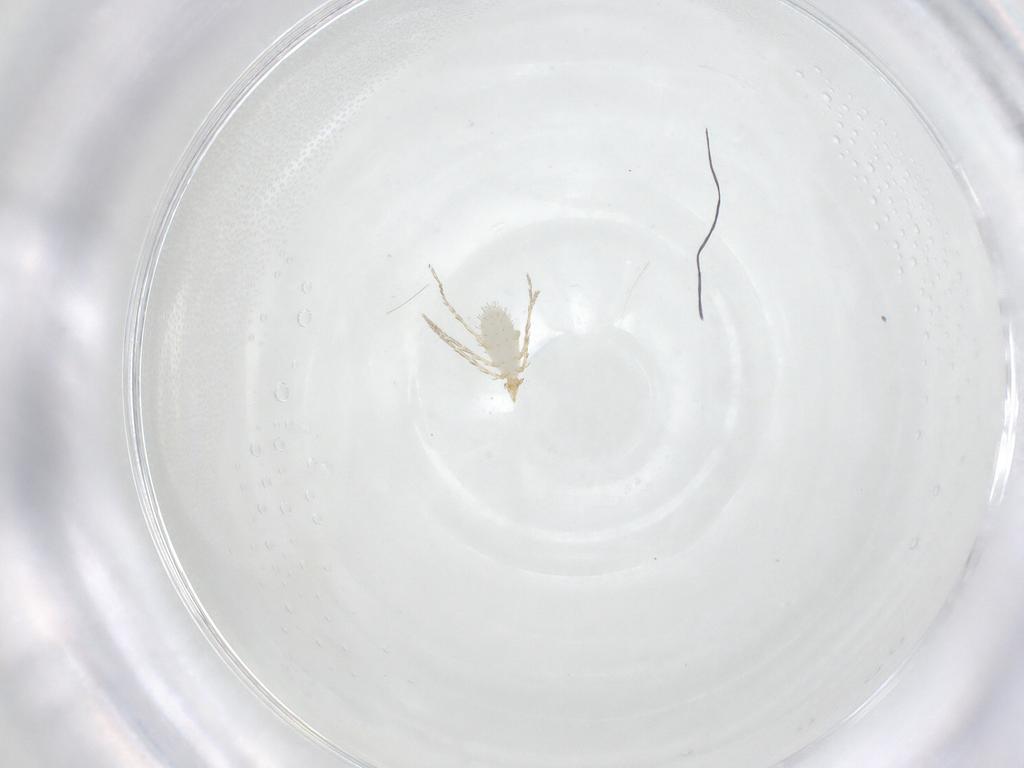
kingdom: Animalia
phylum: Arthropoda
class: Arachnida
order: Trombidiformes
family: Erythraeidae
